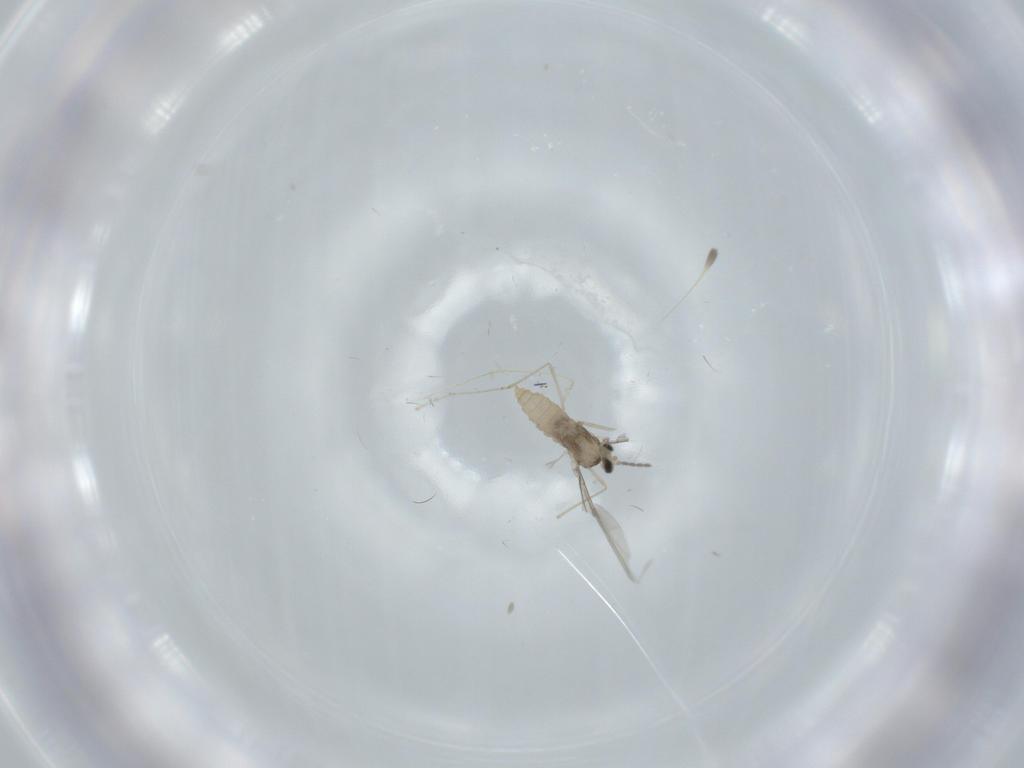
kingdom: Animalia
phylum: Arthropoda
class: Insecta
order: Diptera
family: Cecidomyiidae
